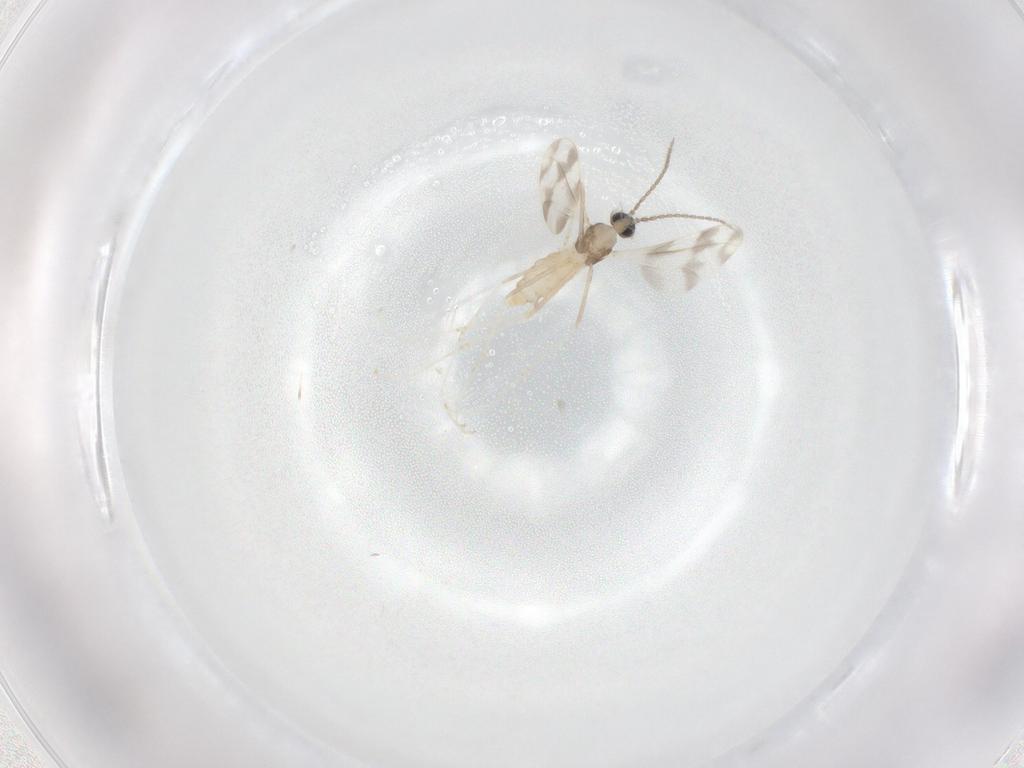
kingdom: Animalia
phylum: Arthropoda
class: Insecta
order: Diptera
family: Cecidomyiidae
